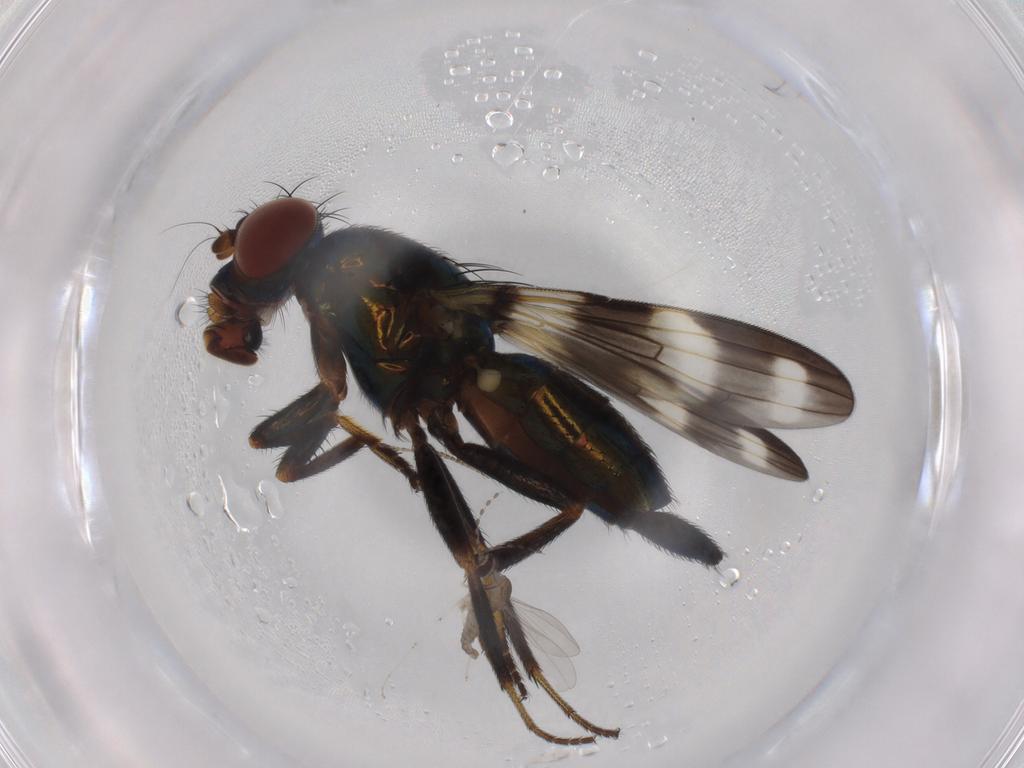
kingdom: Animalia
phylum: Arthropoda
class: Insecta
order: Diptera
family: Ulidiidae
